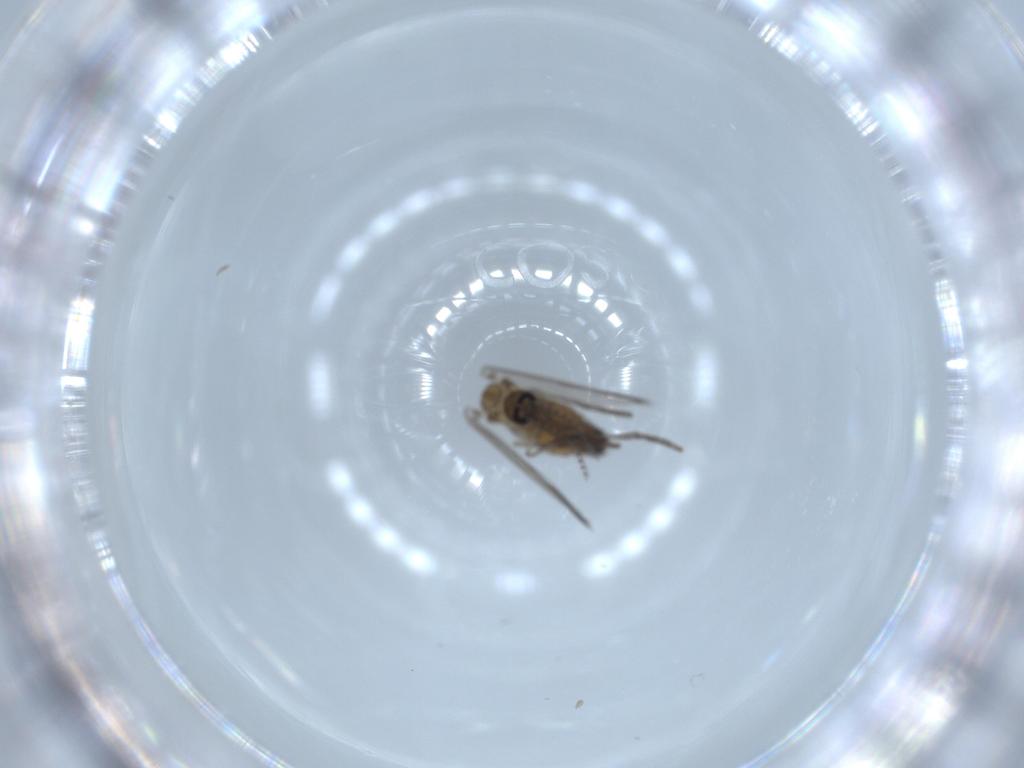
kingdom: Animalia
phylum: Arthropoda
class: Insecta
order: Diptera
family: Psychodidae
